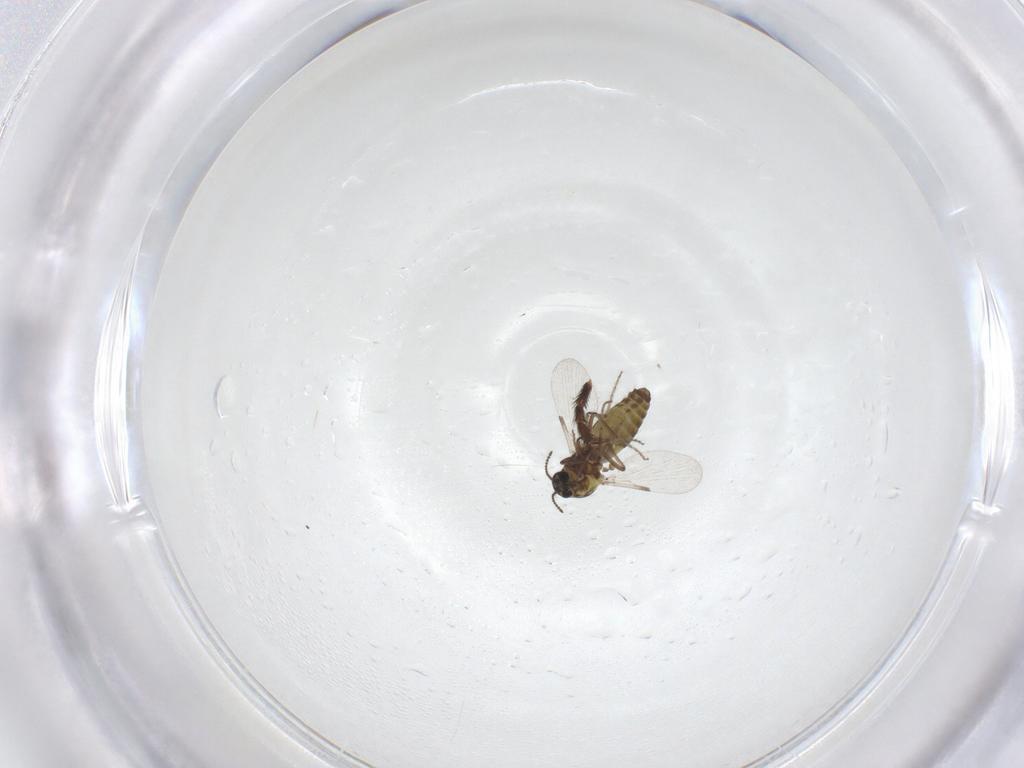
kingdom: Animalia
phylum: Arthropoda
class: Insecta
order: Diptera
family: Ceratopogonidae
